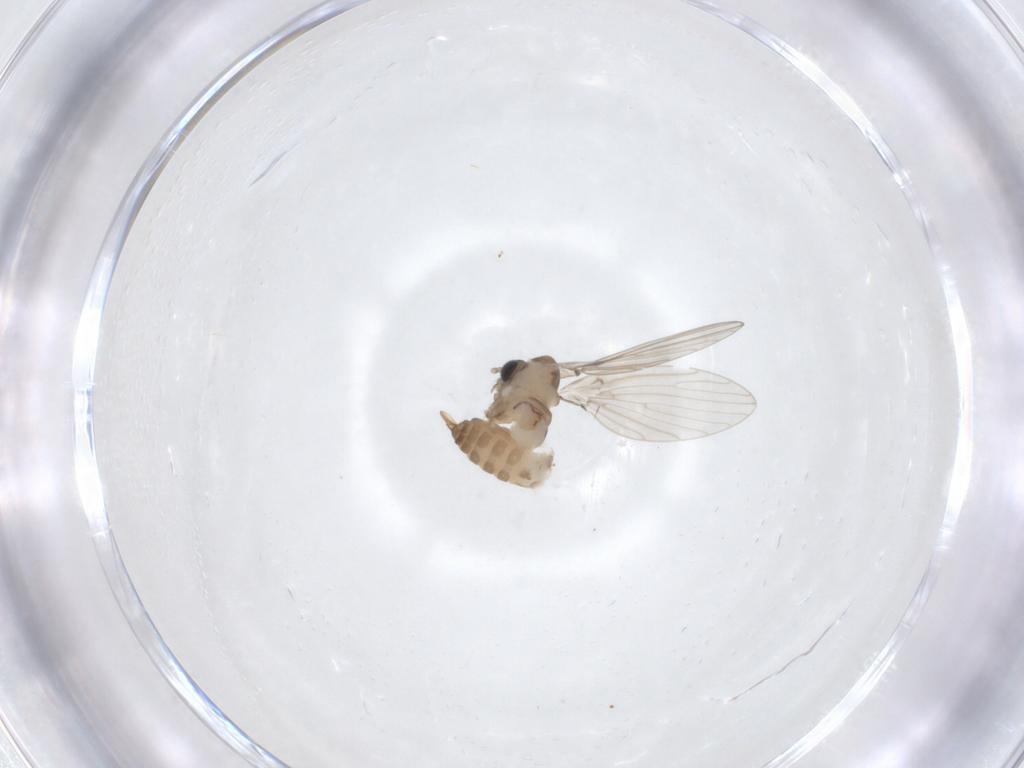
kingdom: Animalia
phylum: Arthropoda
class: Insecta
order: Diptera
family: Psychodidae
